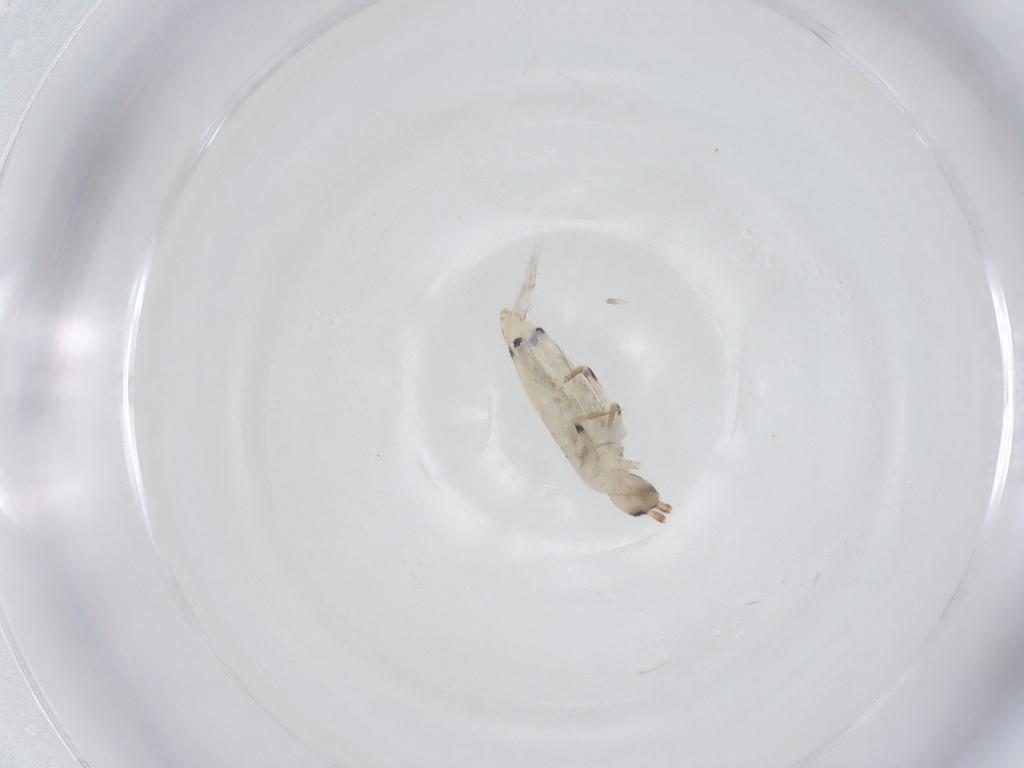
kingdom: Animalia
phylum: Arthropoda
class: Collembola
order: Entomobryomorpha
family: Entomobryidae
